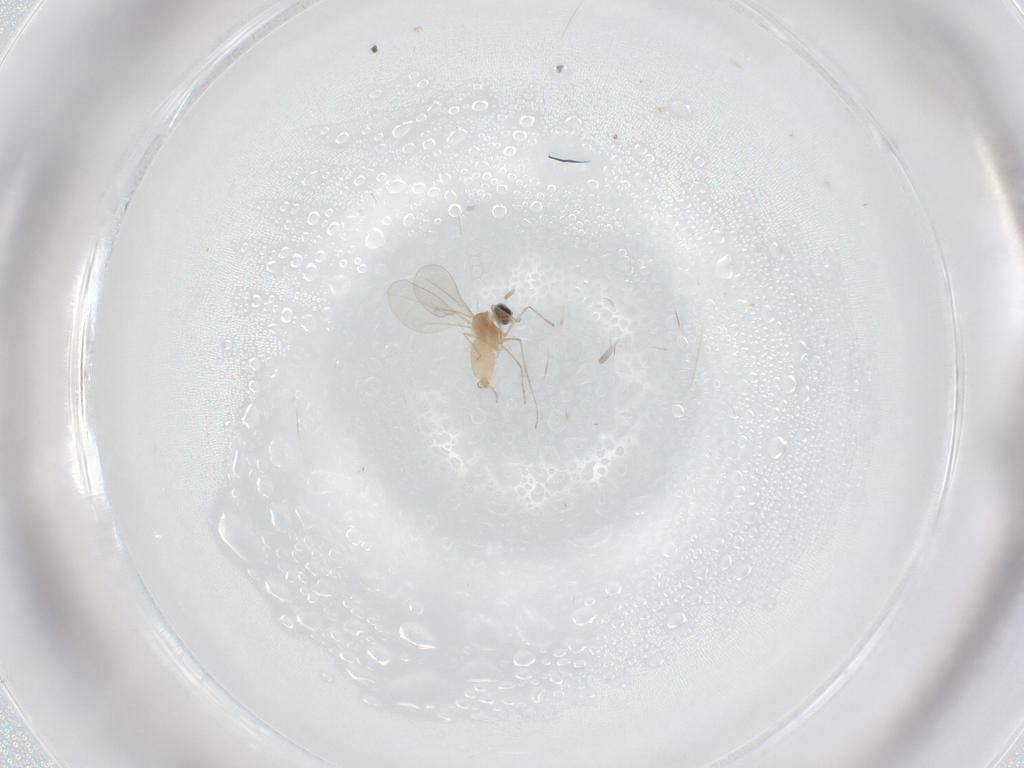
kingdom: Animalia
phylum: Arthropoda
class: Insecta
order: Diptera
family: Cecidomyiidae
